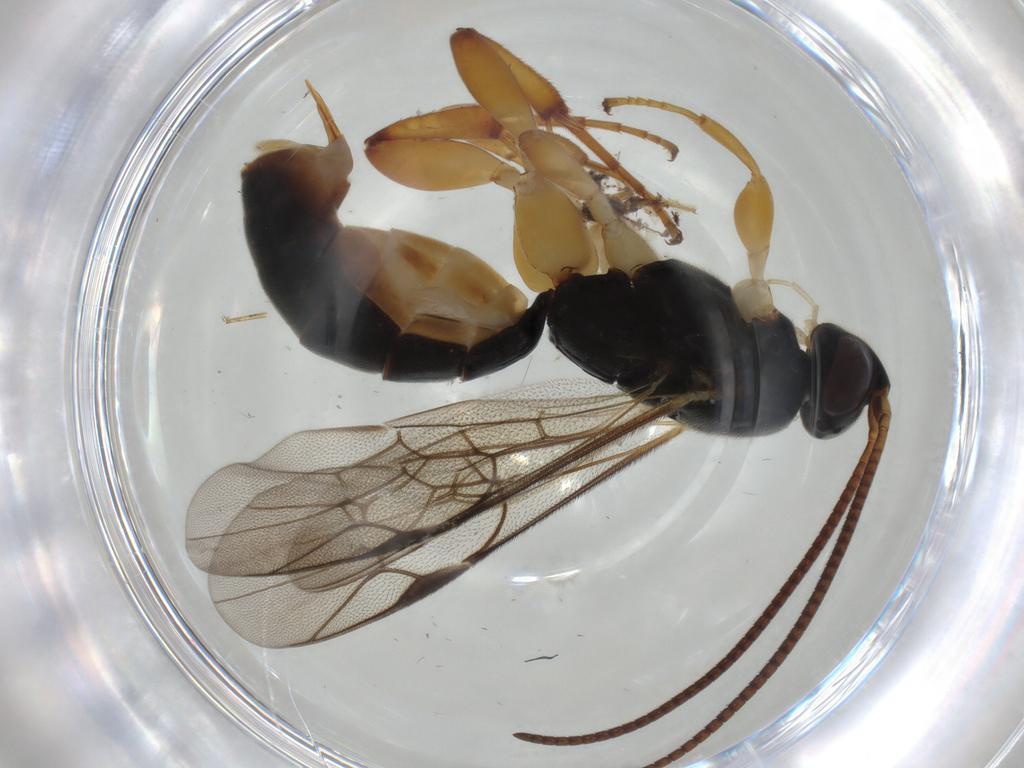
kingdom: Animalia
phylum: Arthropoda
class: Insecta
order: Hymenoptera
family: Ichneumonidae
